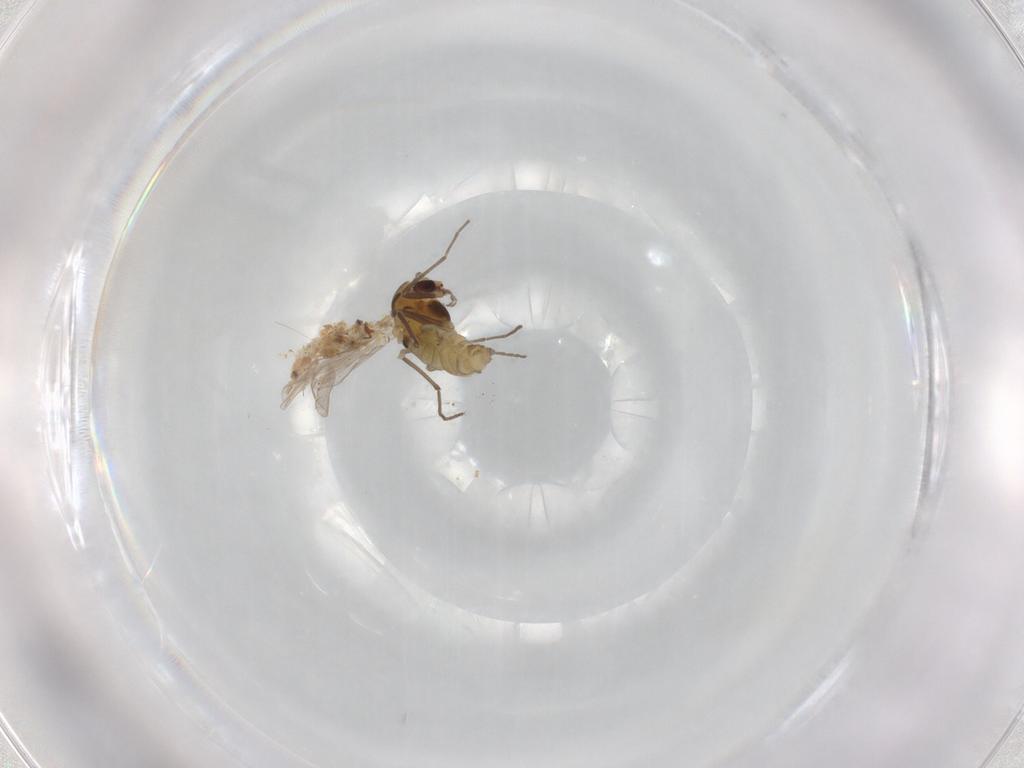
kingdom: Animalia
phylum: Arthropoda
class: Insecta
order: Diptera
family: Chironomidae
